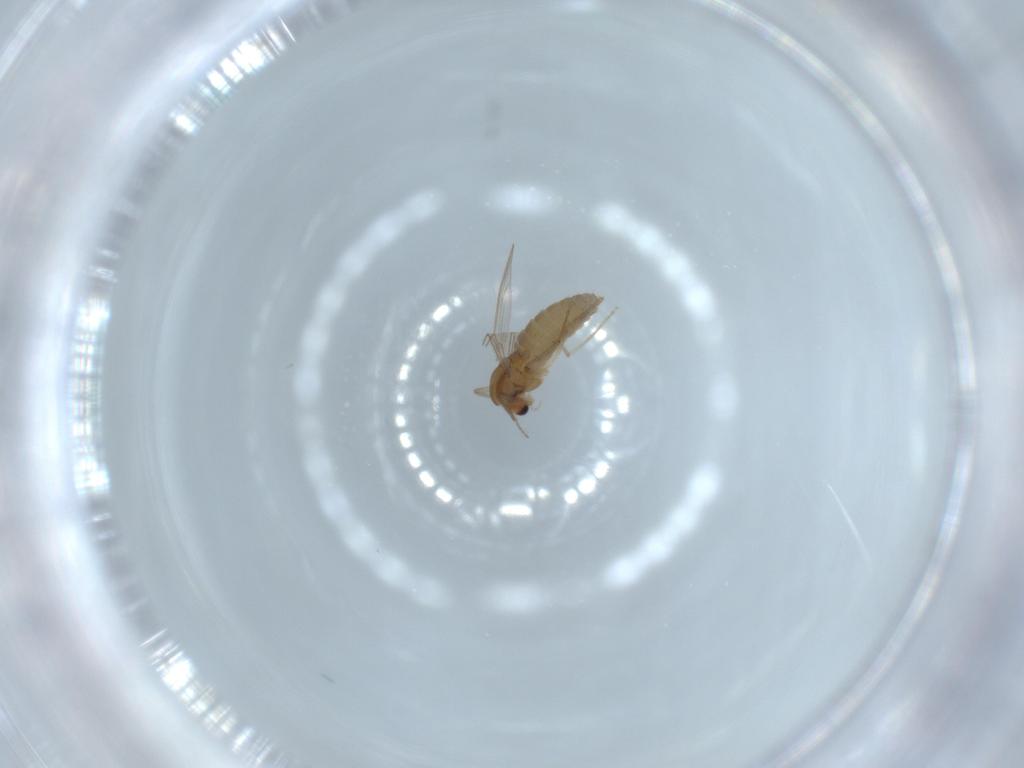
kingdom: Animalia
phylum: Arthropoda
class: Insecta
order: Diptera
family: Chironomidae
